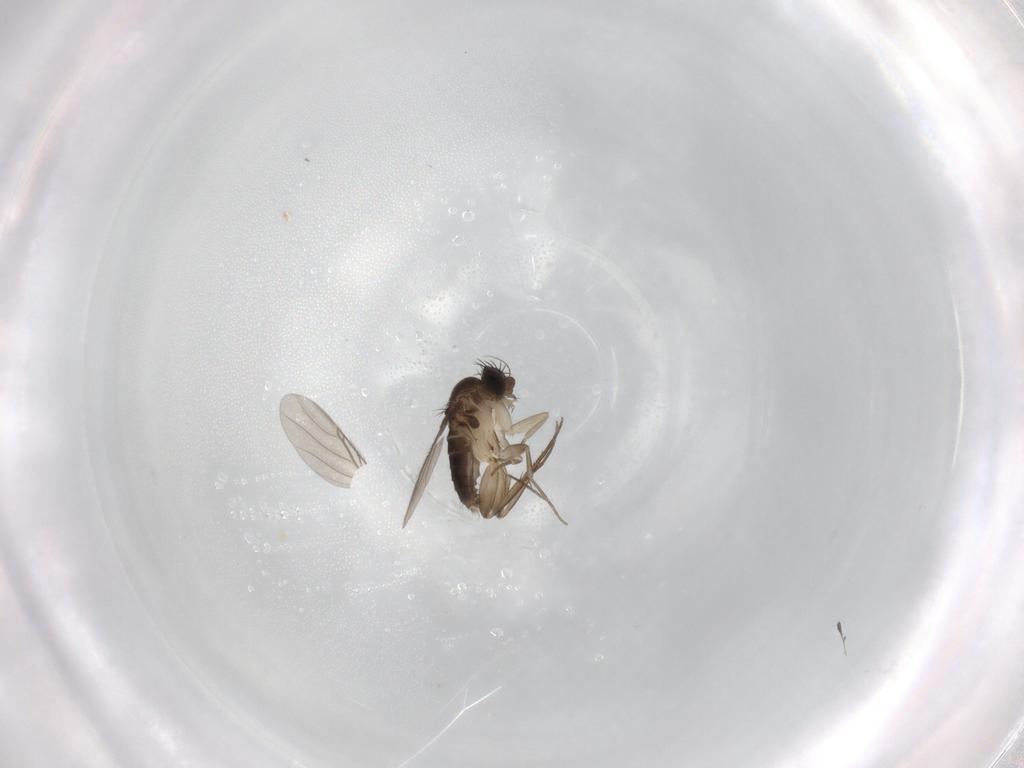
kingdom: Animalia
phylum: Arthropoda
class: Insecta
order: Diptera
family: Phoridae
